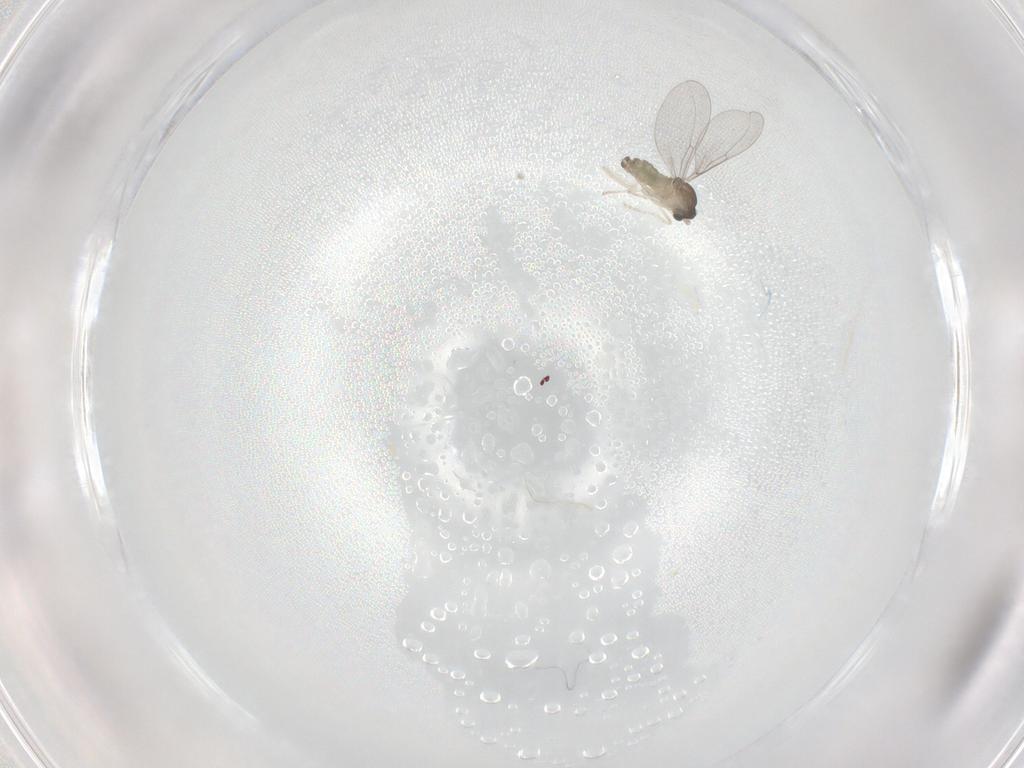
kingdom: Animalia
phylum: Arthropoda
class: Insecta
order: Diptera
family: Cecidomyiidae
